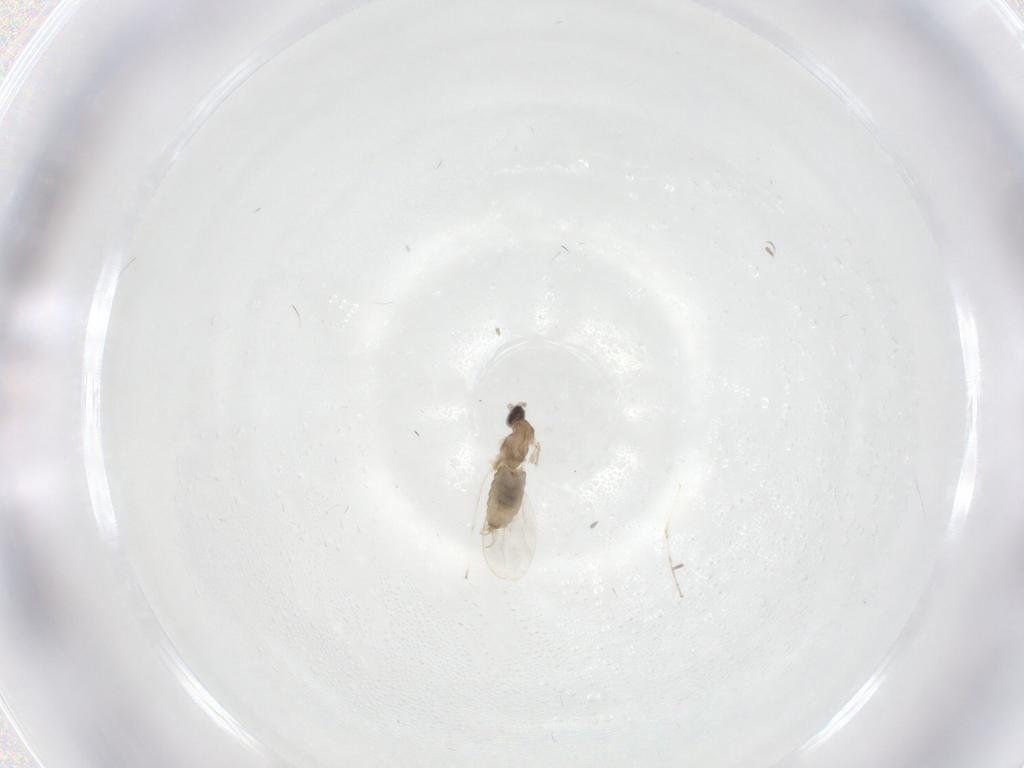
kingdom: Animalia
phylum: Arthropoda
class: Insecta
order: Diptera
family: Cecidomyiidae
